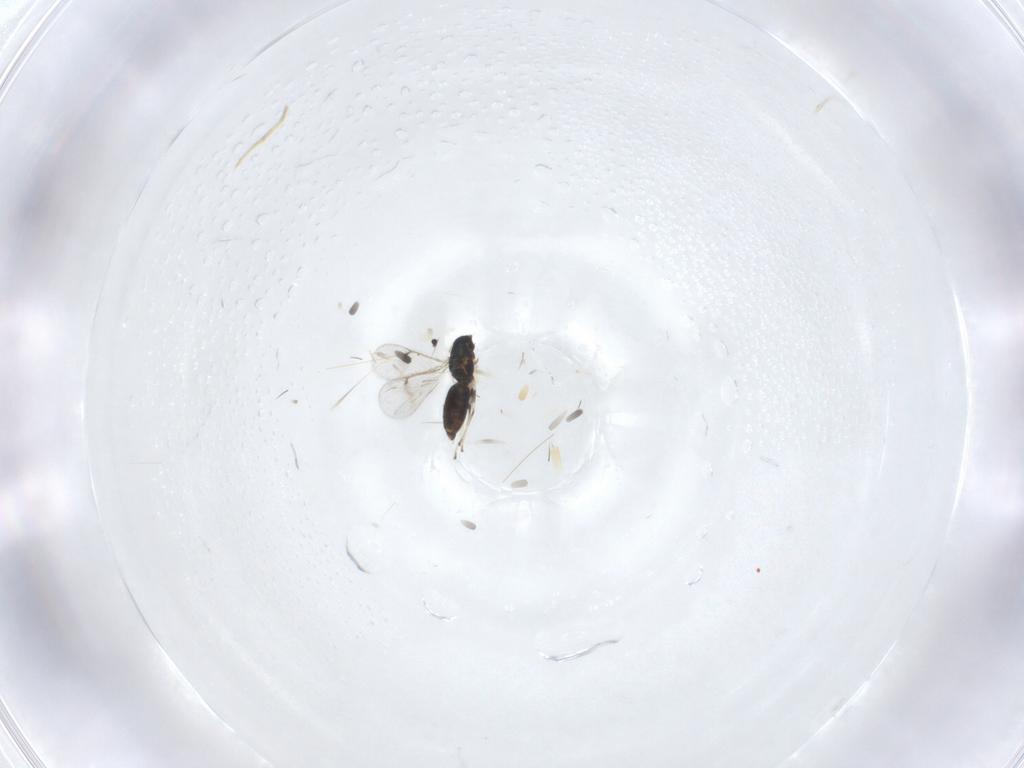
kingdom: Animalia
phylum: Arthropoda
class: Insecta
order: Hymenoptera
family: Eulophidae
